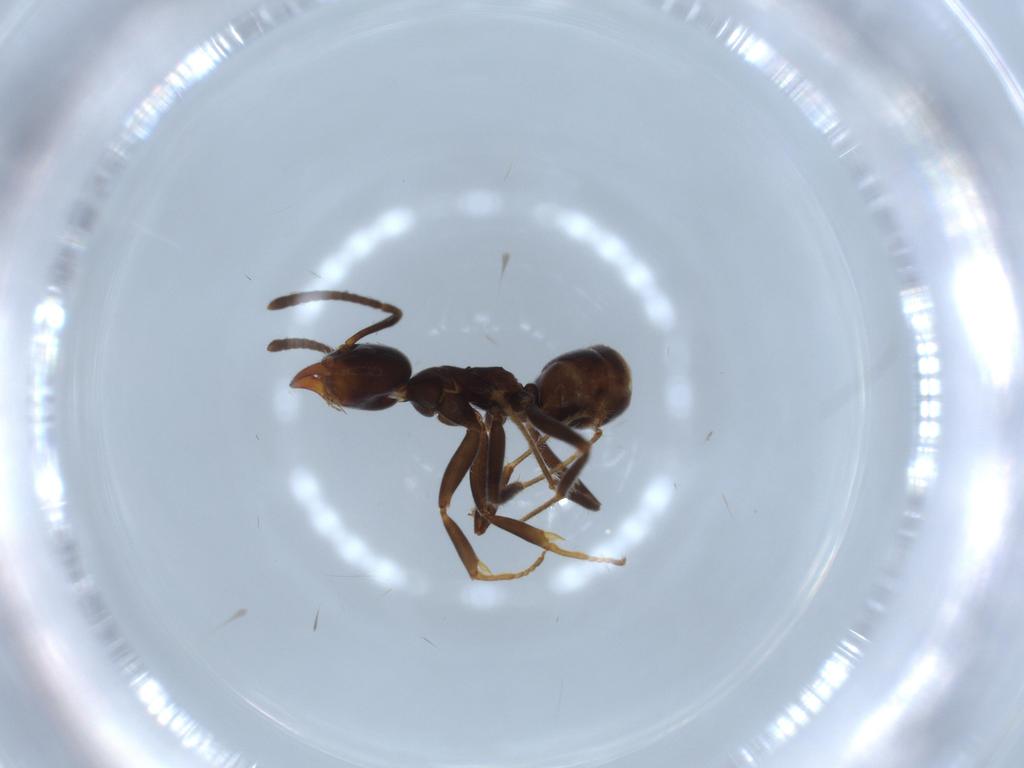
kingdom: Animalia
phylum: Arthropoda
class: Insecta
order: Hymenoptera
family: Formicidae
